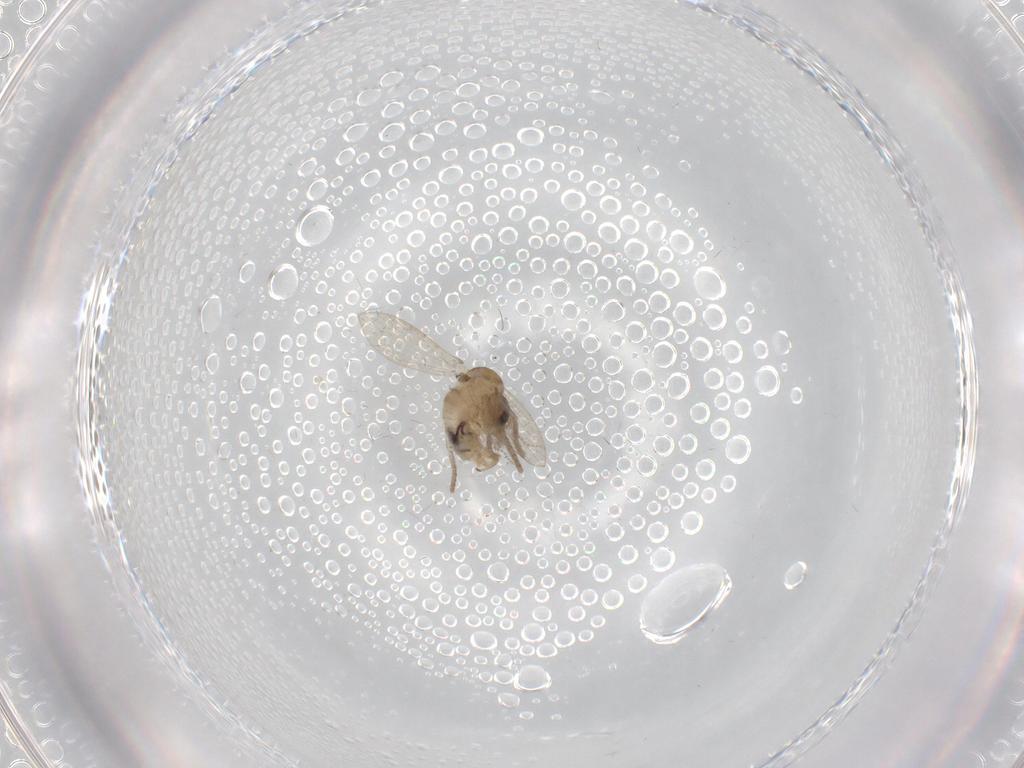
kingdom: Animalia
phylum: Arthropoda
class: Insecta
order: Diptera
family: Psychodidae
